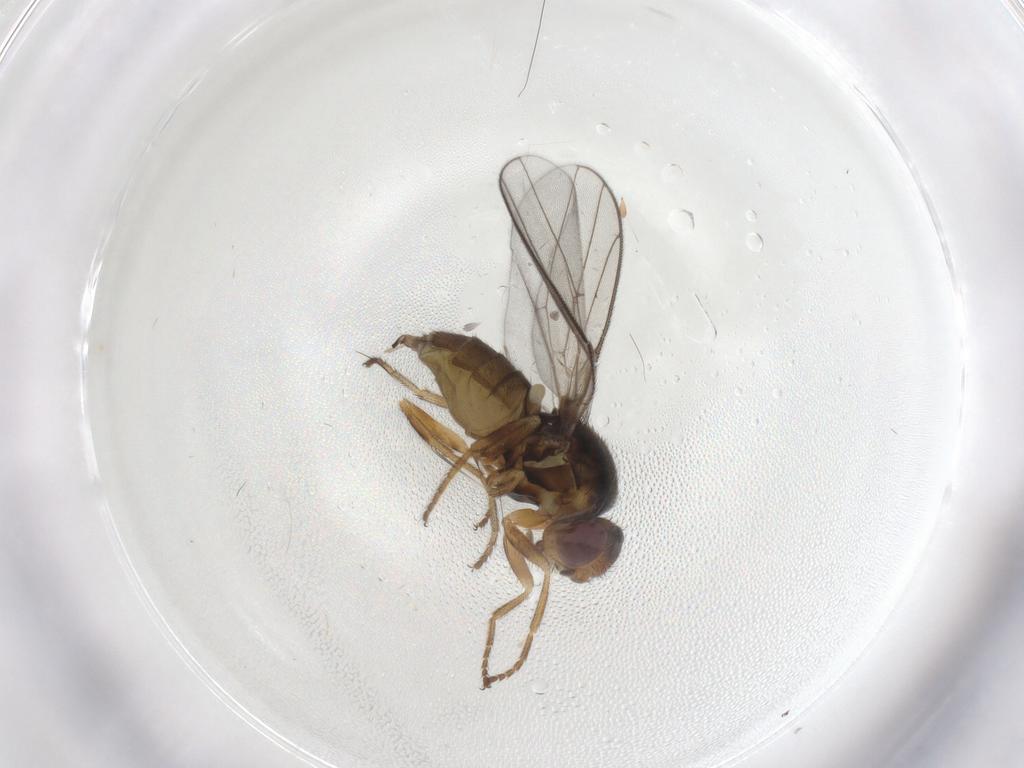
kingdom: Animalia
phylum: Arthropoda
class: Insecta
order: Diptera
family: Chloropidae
